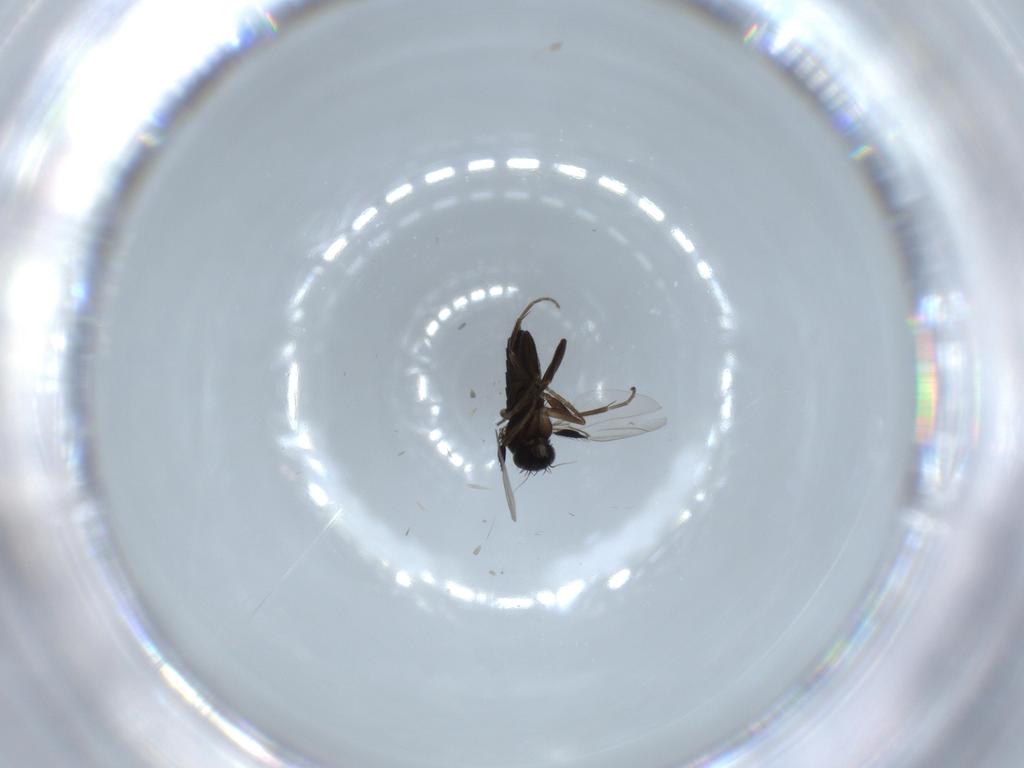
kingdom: Animalia
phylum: Arthropoda
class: Insecta
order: Diptera
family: Phoridae
